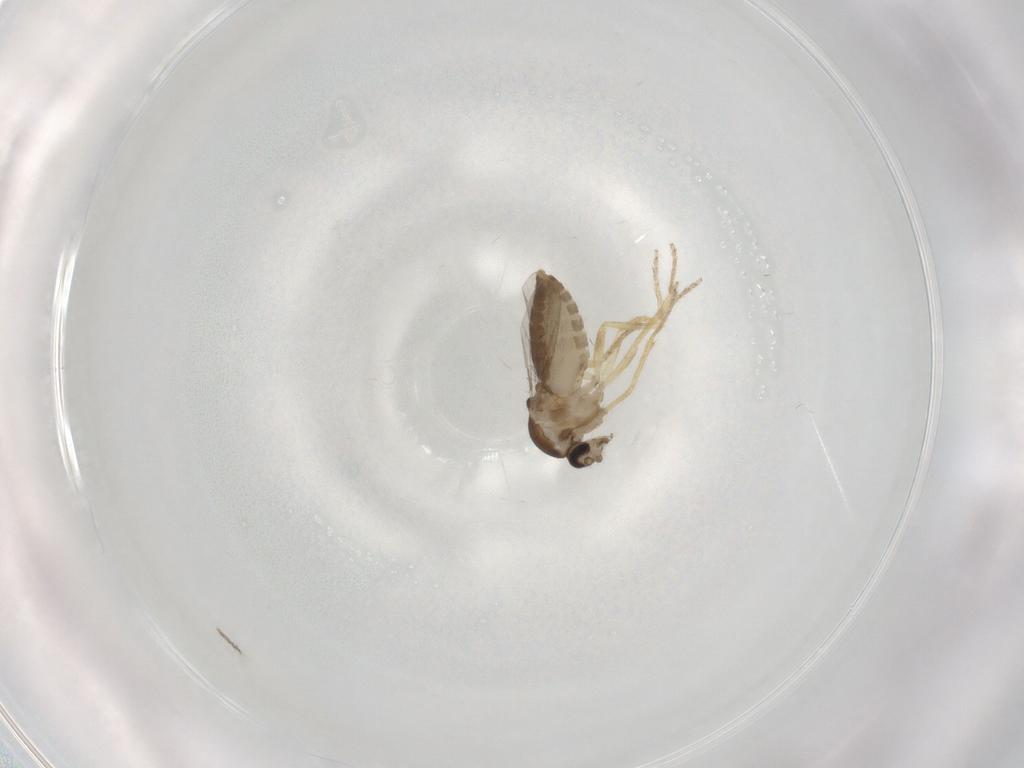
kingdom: Animalia
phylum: Arthropoda
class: Insecta
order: Diptera
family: Ceratopogonidae
